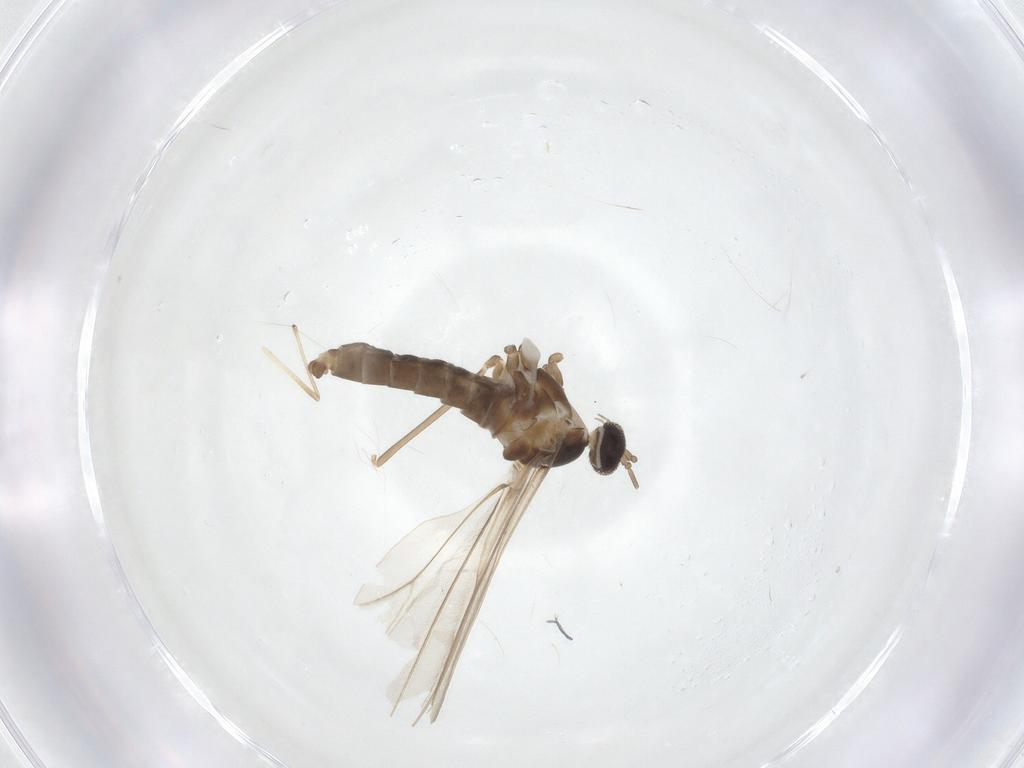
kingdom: Animalia
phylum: Arthropoda
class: Insecta
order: Diptera
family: Cecidomyiidae
